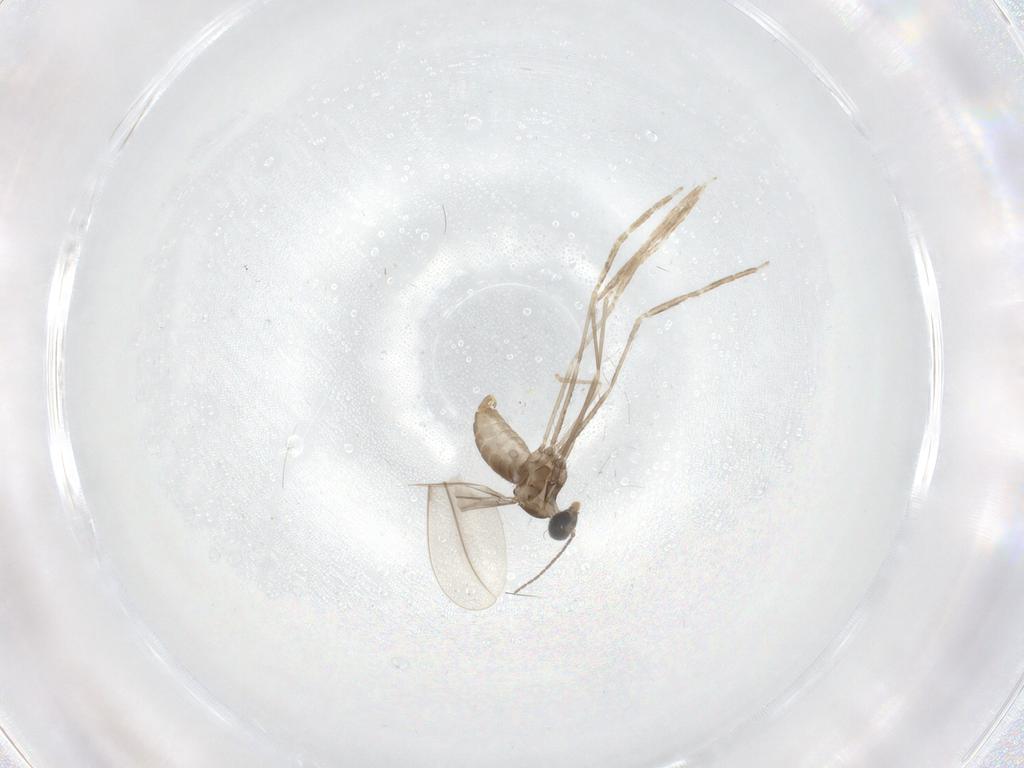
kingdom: Animalia
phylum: Arthropoda
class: Insecta
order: Diptera
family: Cecidomyiidae
